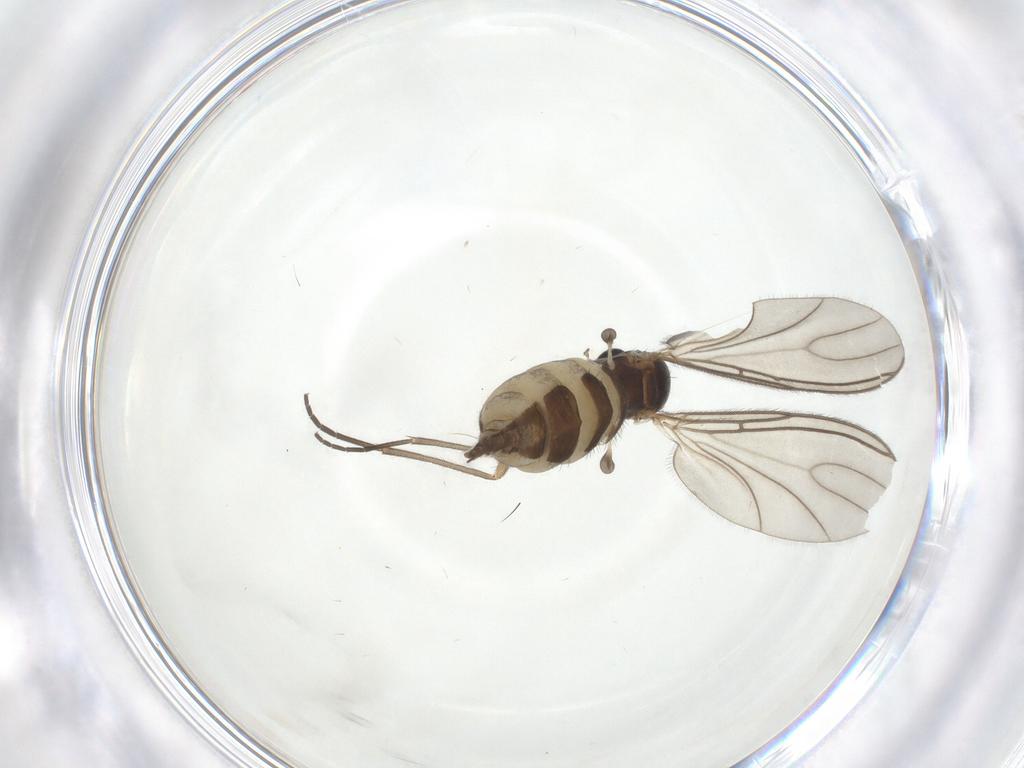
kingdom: Animalia
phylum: Arthropoda
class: Insecta
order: Diptera
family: Sciaridae
